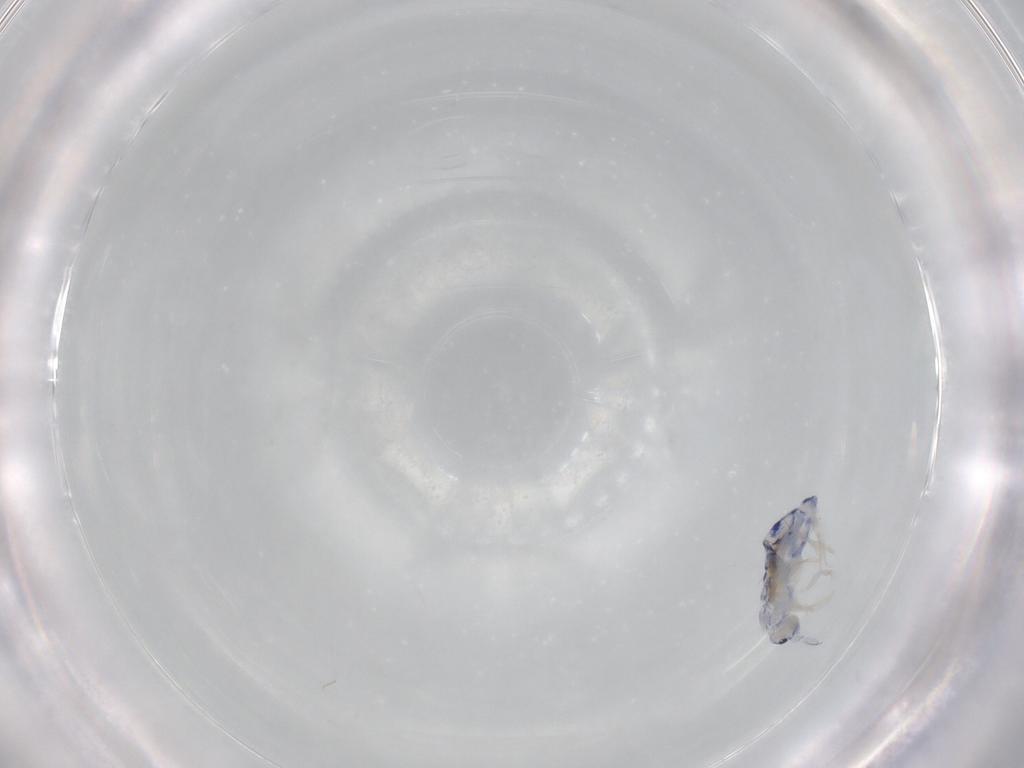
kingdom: Animalia
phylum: Arthropoda
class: Collembola
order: Entomobryomorpha
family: Entomobryidae
